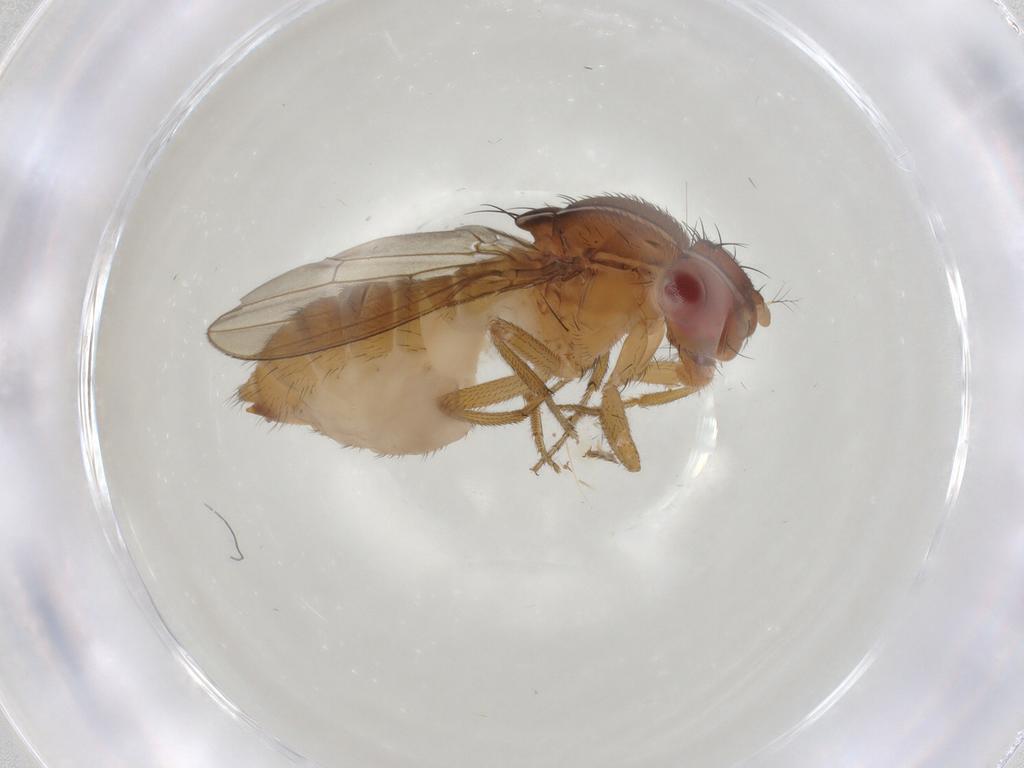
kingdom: Animalia
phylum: Arthropoda
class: Insecta
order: Diptera
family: Drosophilidae
